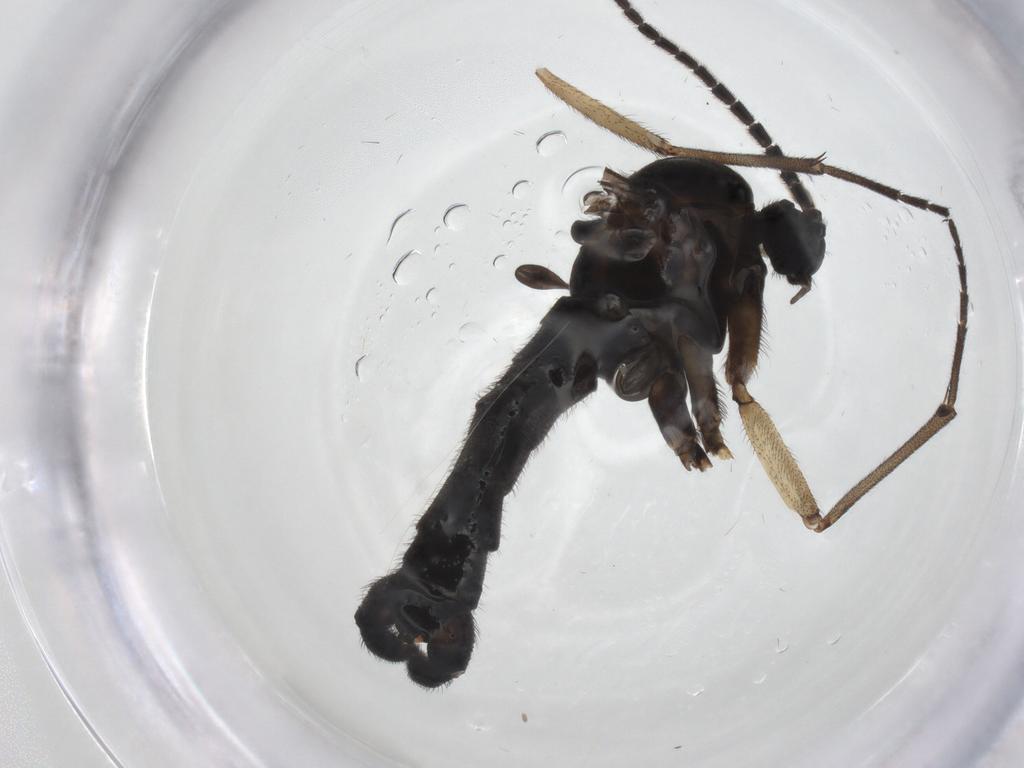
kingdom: Animalia
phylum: Arthropoda
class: Insecta
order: Diptera
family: Sciaridae
